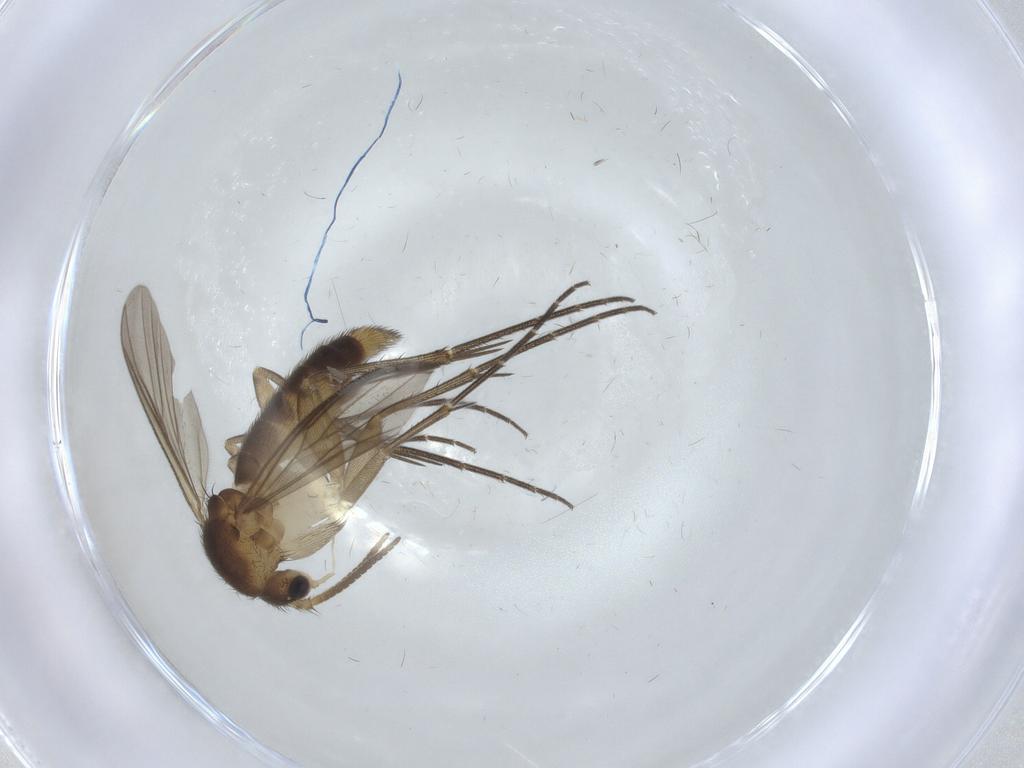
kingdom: Animalia
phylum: Arthropoda
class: Insecta
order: Diptera
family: Mycetophilidae
